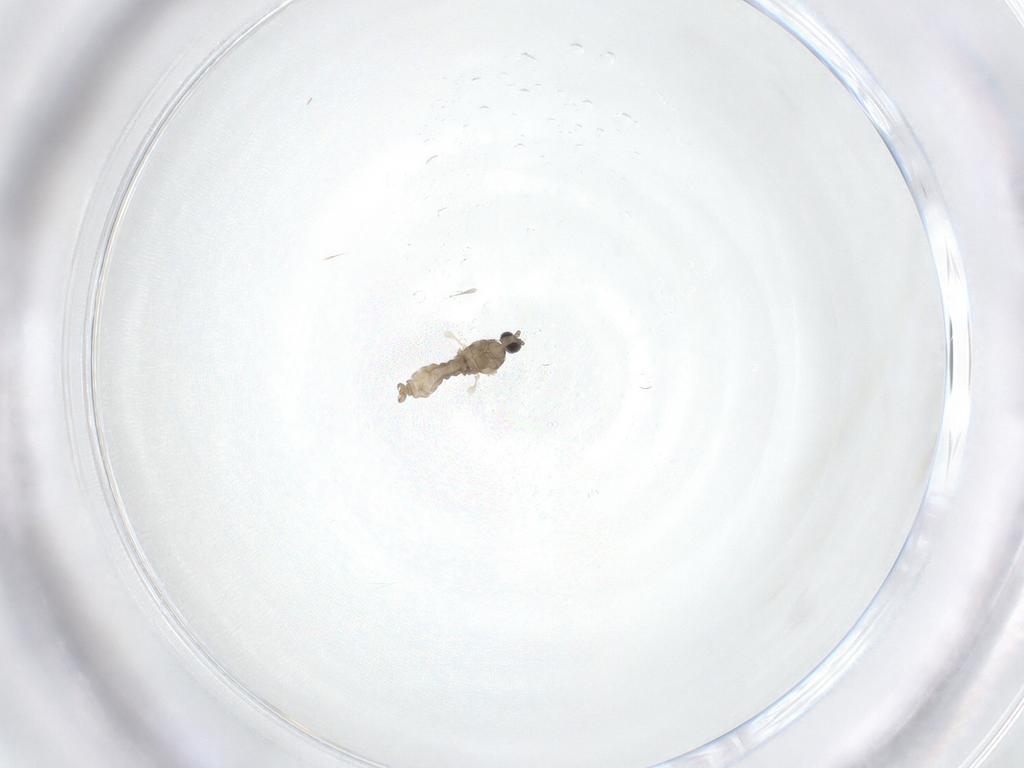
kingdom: Animalia
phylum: Arthropoda
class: Insecta
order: Diptera
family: Cecidomyiidae
